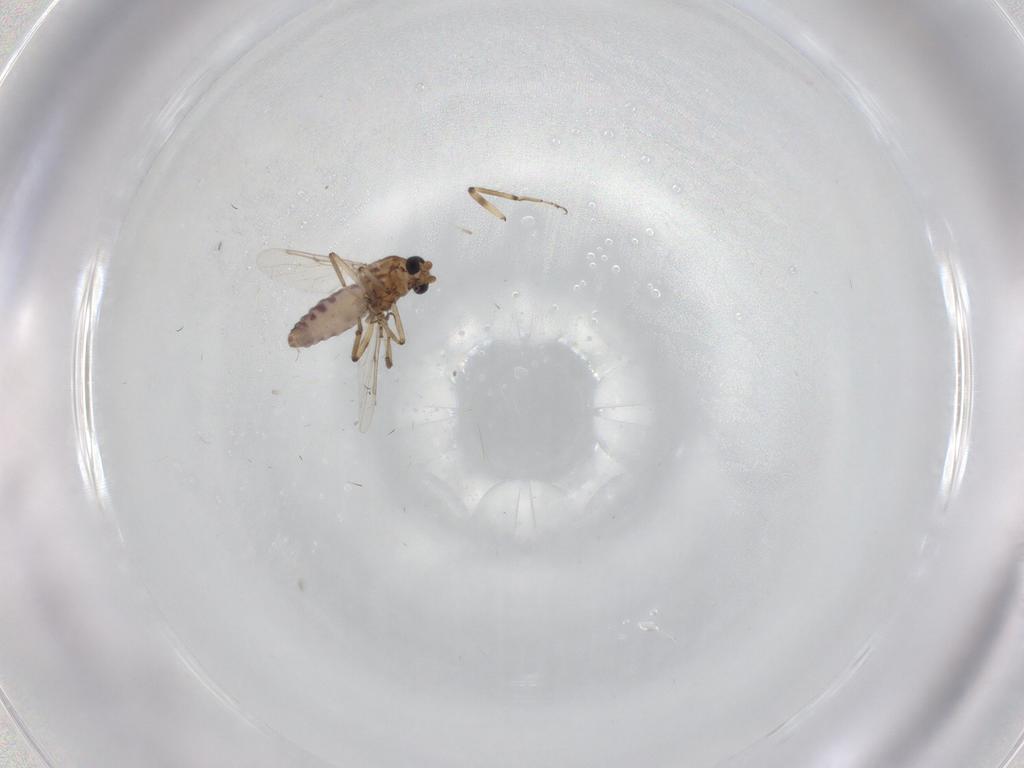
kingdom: Animalia
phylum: Arthropoda
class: Insecta
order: Diptera
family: Ceratopogonidae
